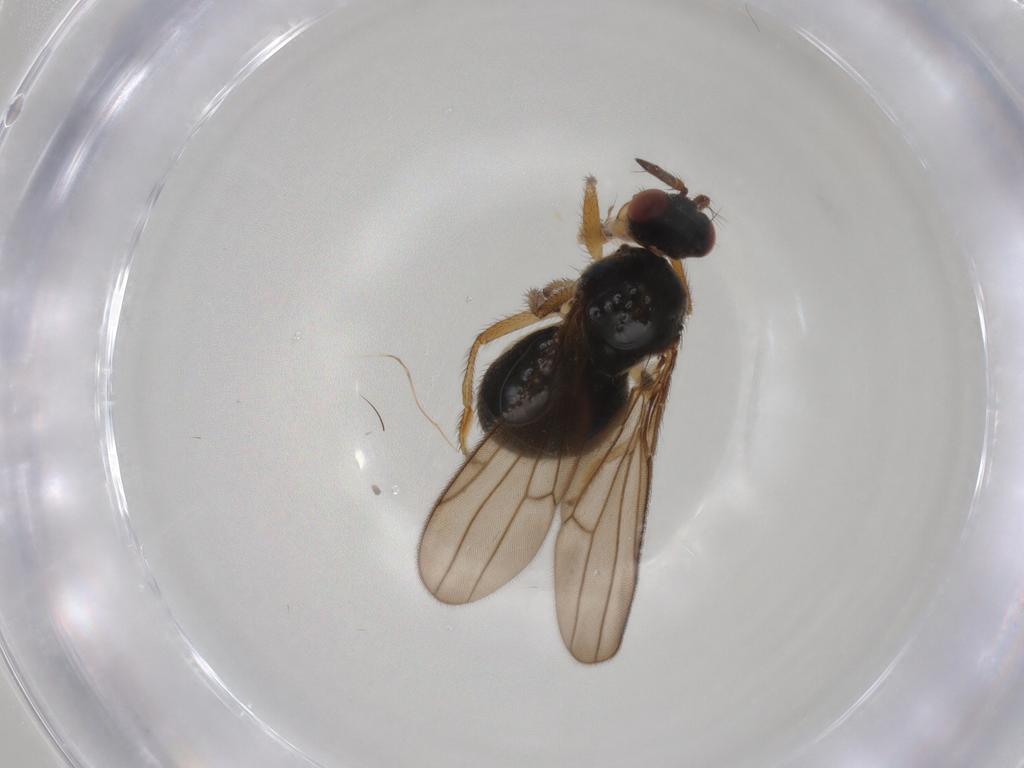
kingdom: Animalia
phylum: Arthropoda
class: Insecta
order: Diptera
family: Ephydridae
